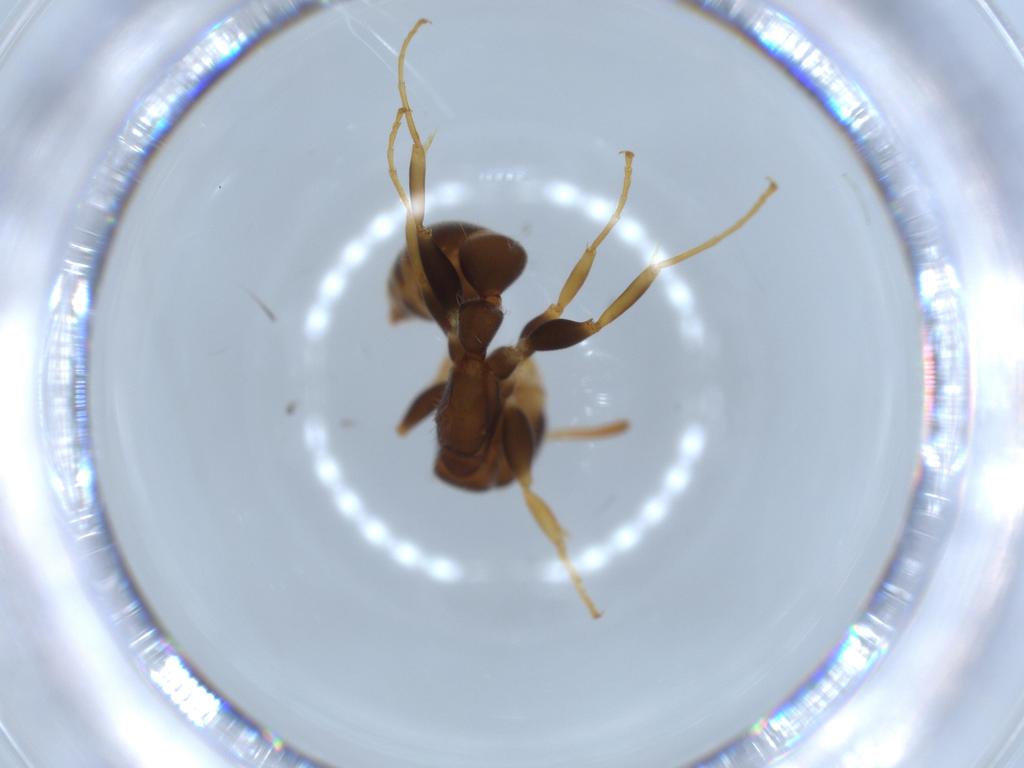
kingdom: Animalia
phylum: Arthropoda
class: Insecta
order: Hymenoptera
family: Formicidae
